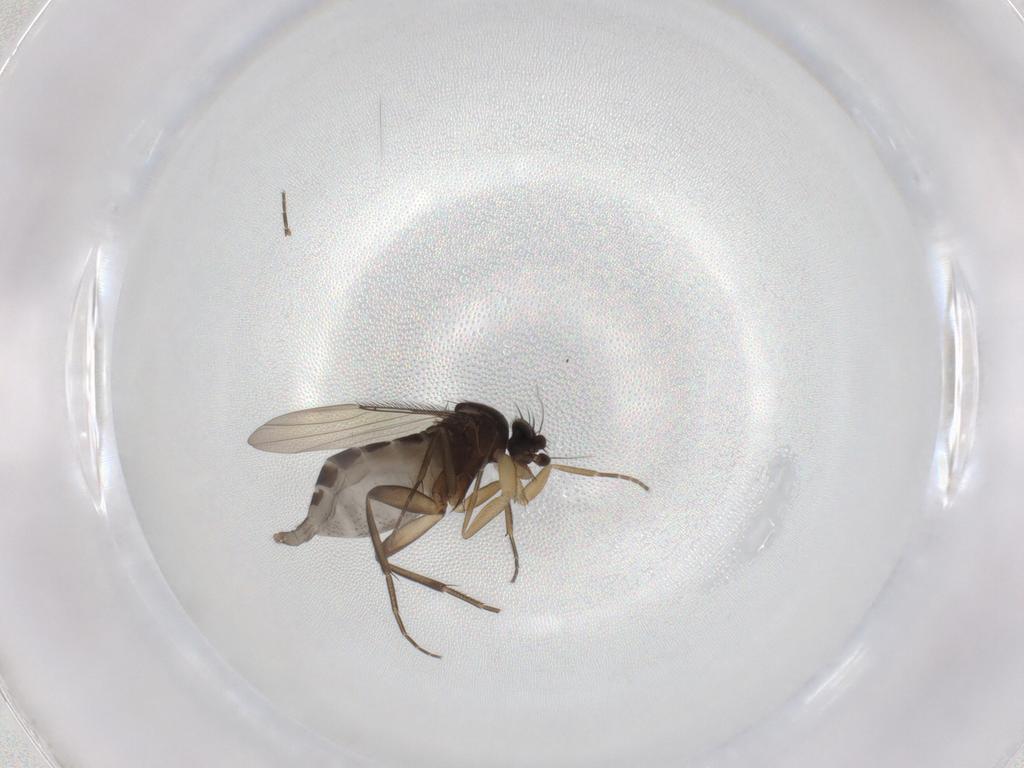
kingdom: Animalia
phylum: Arthropoda
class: Insecta
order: Diptera
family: Phoridae
